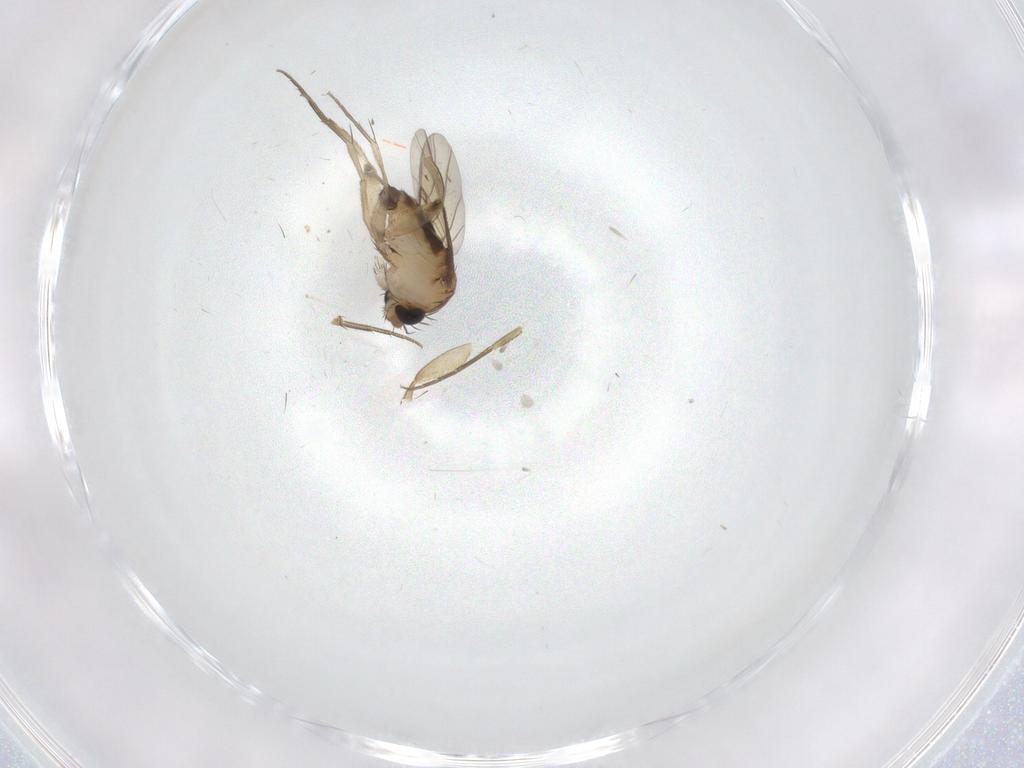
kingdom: Animalia
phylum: Arthropoda
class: Insecta
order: Diptera
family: Phoridae
